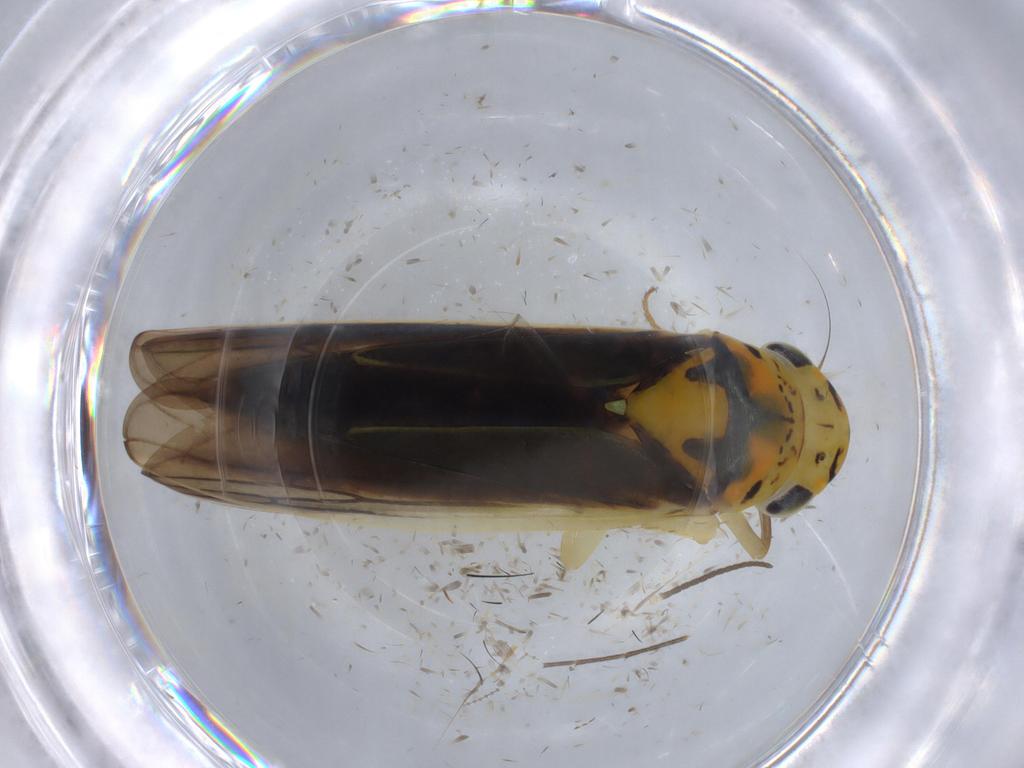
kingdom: Animalia
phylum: Arthropoda
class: Insecta
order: Hemiptera
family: Cicadellidae
